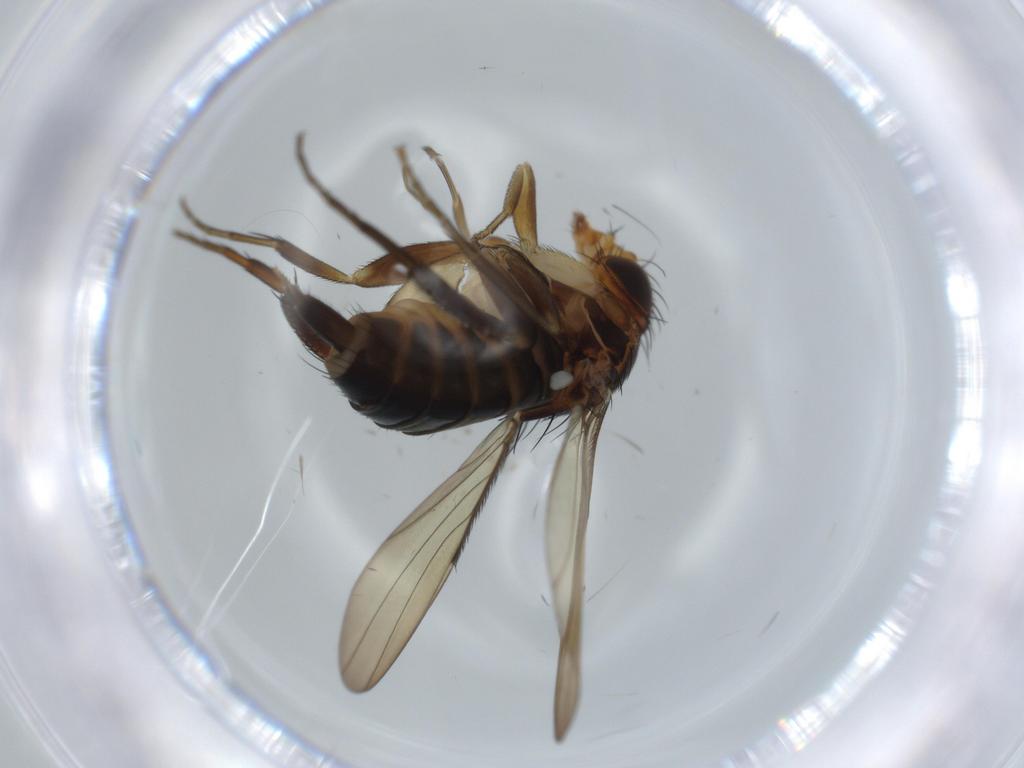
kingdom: Animalia
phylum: Arthropoda
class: Insecta
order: Diptera
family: Phoridae
